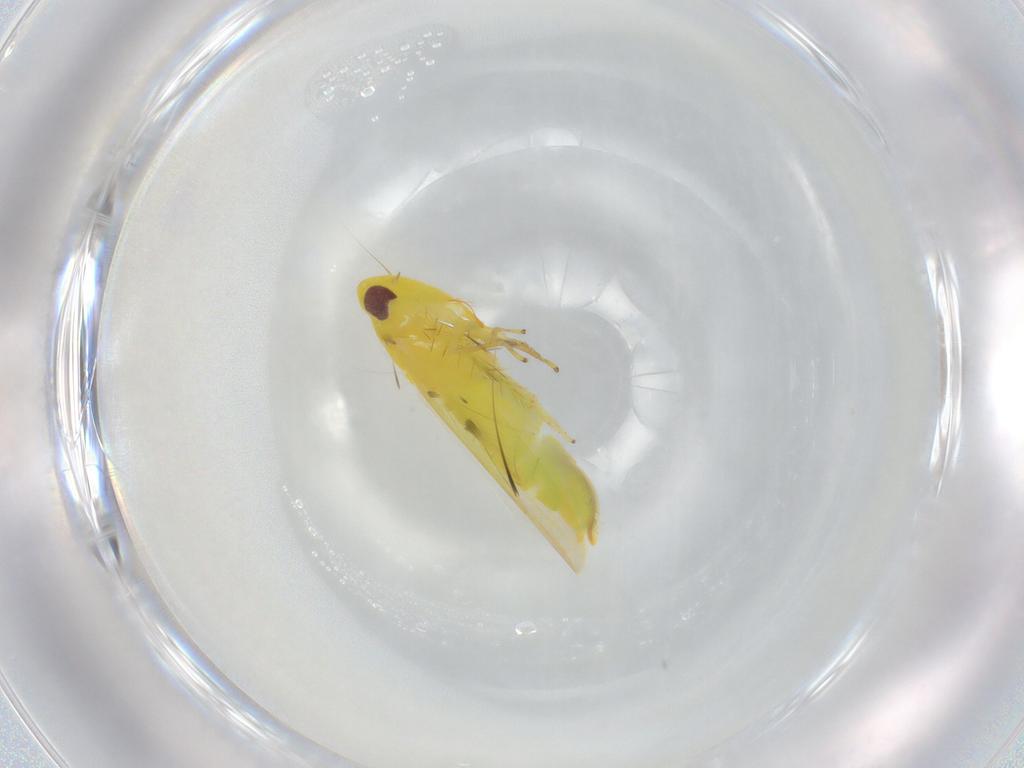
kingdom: Animalia
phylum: Arthropoda
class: Insecta
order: Hemiptera
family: Cicadellidae
